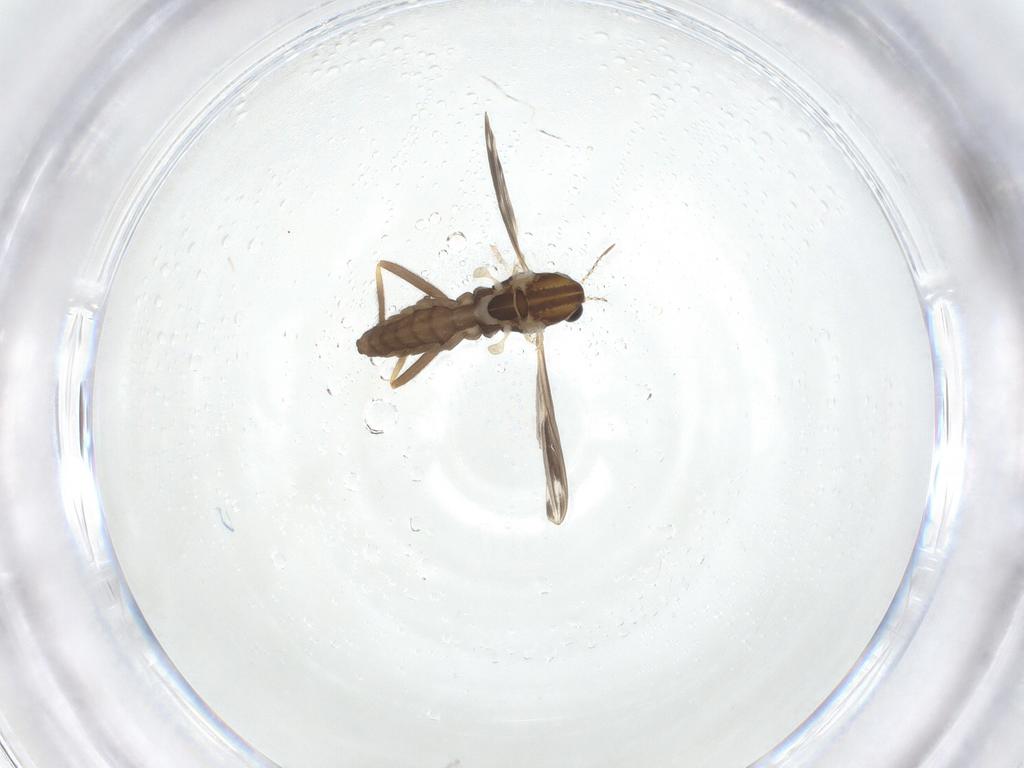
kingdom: Animalia
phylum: Arthropoda
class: Insecta
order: Diptera
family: Chironomidae
